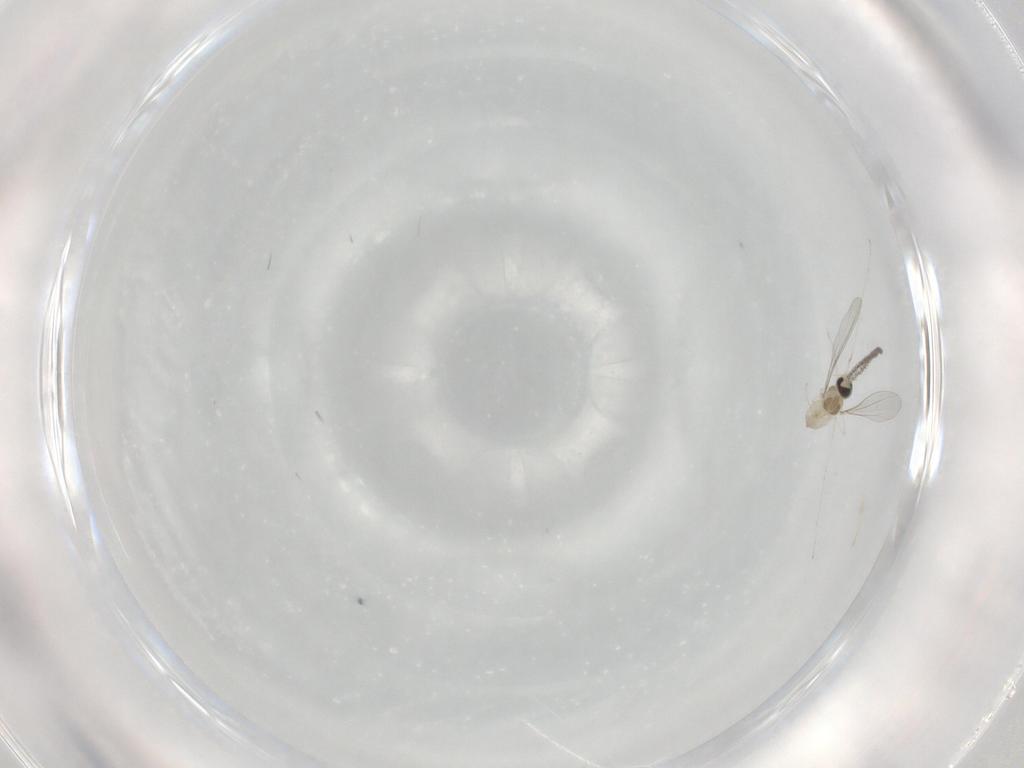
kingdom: Animalia
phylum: Arthropoda
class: Insecta
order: Diptera
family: Cecidomyiidae
